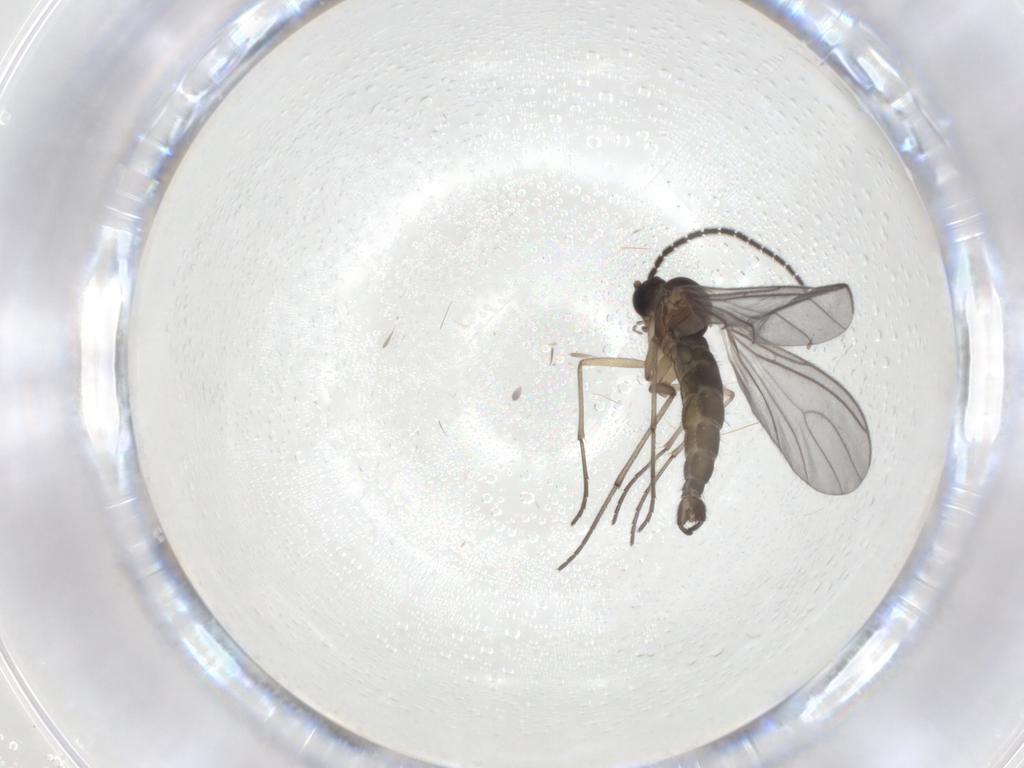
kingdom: Animalia
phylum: Arthropoda
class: Insecta
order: Diptera
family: Sciaridae
